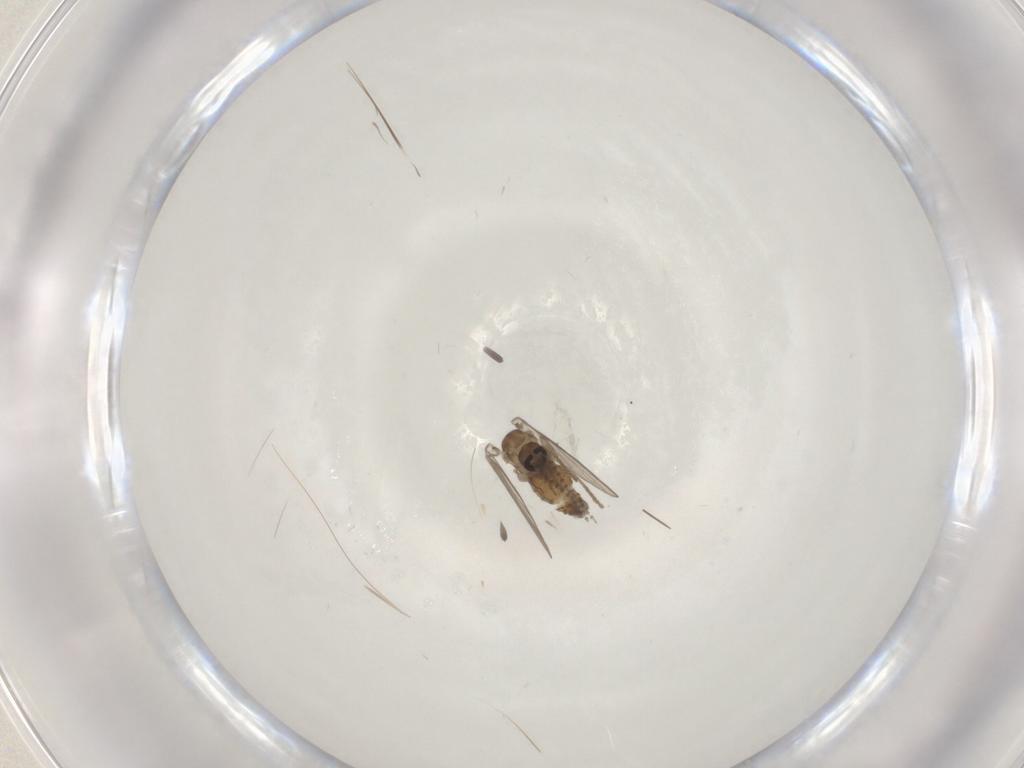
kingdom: Animalia
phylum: Arthropoda
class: Insecta
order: Diptera
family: Psychodidae
